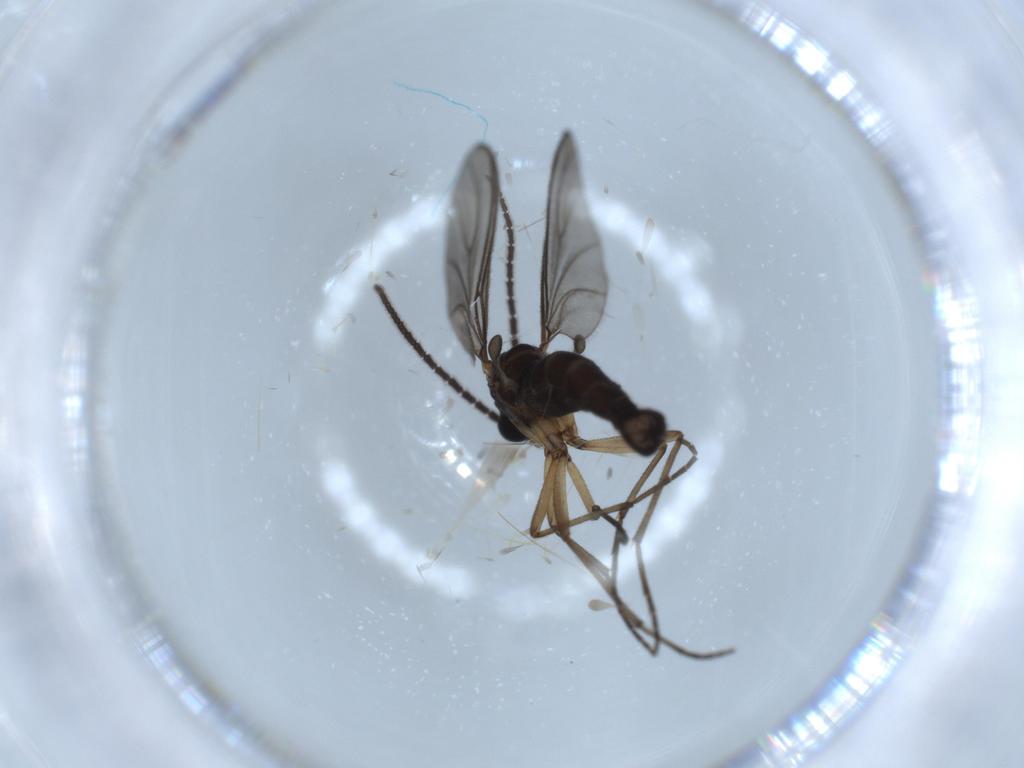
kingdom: Animalia
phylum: Arthropoda
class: Insecta
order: Diptera
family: Sciaridae
